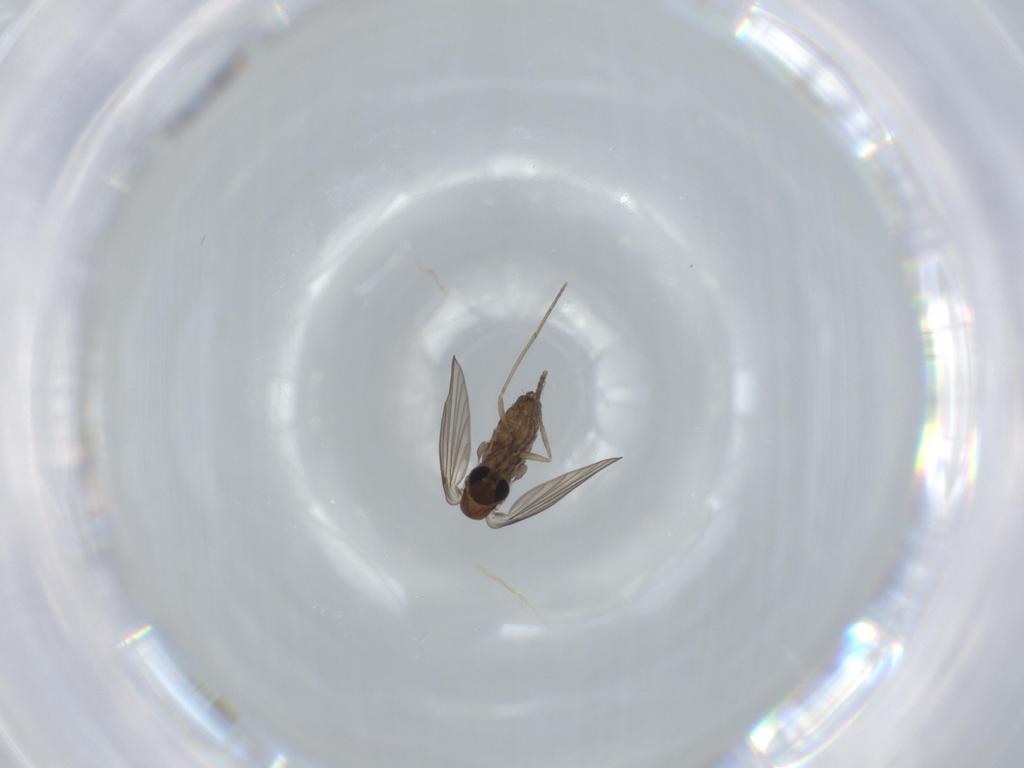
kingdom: Animalia
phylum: Arthropoda
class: Insecta
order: Diptera
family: Psychodidae
